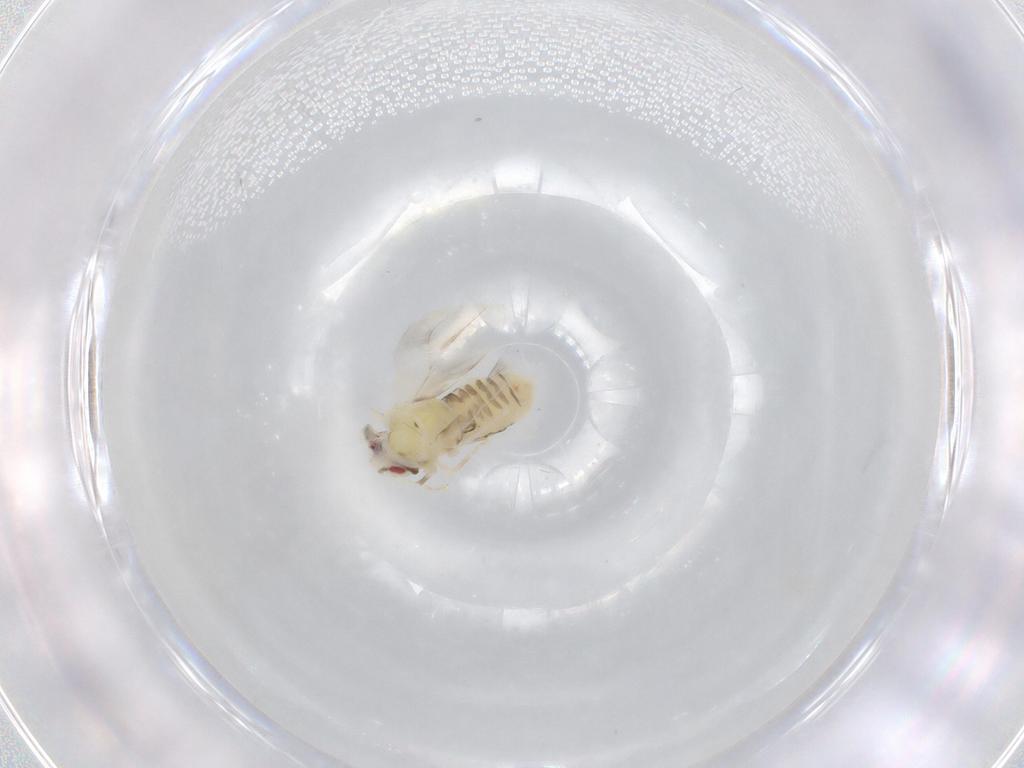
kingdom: Animalia
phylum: Arthropoda
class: Insecta
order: Hemiptera
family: Aleyrodidae
